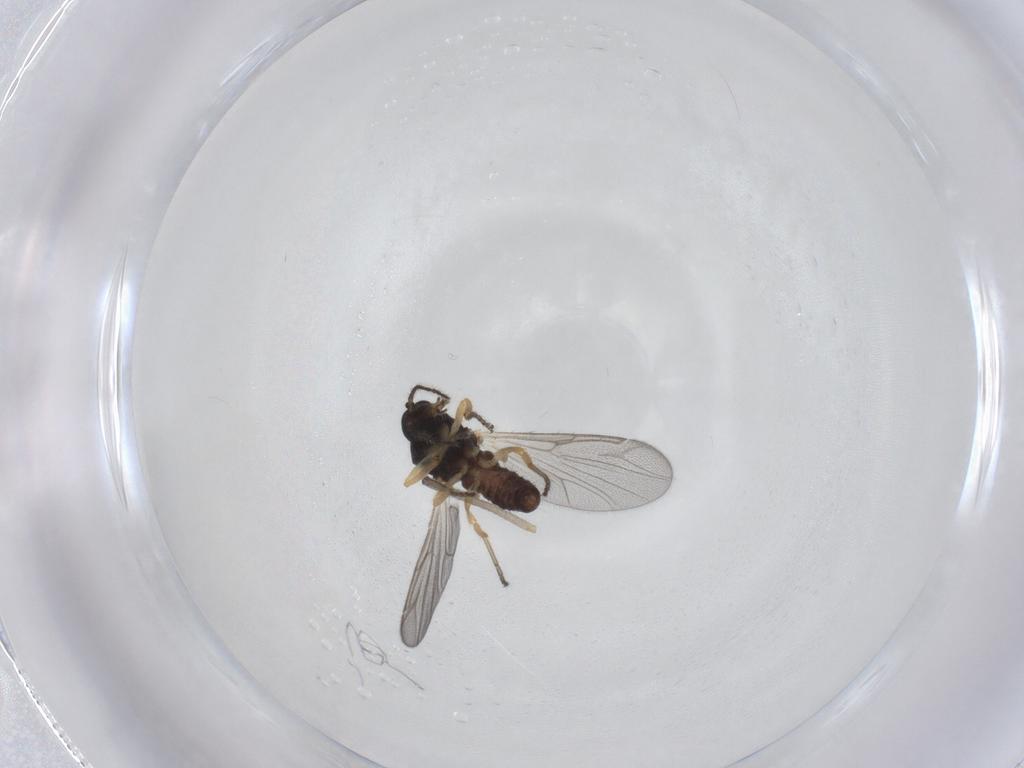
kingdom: Animalia
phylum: Arthropoda
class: Insecta
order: Diptera
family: Ceratopogonidae
